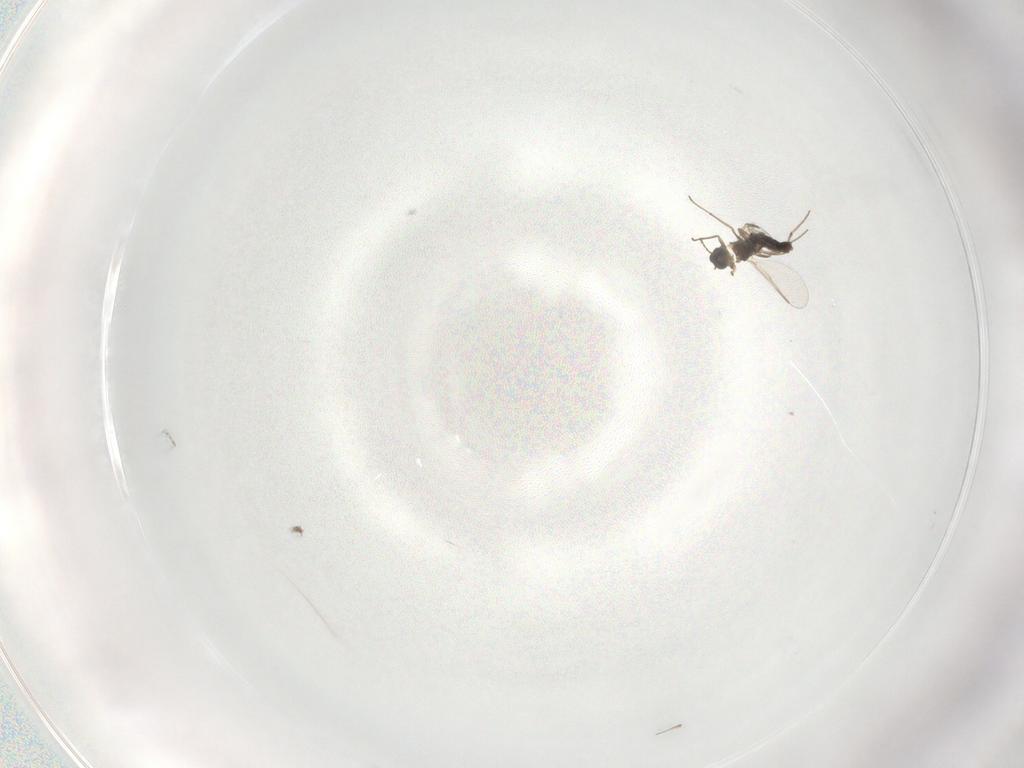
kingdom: Animalia
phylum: Arthropoda
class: Insecta
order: Diptera
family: Chironomidae
